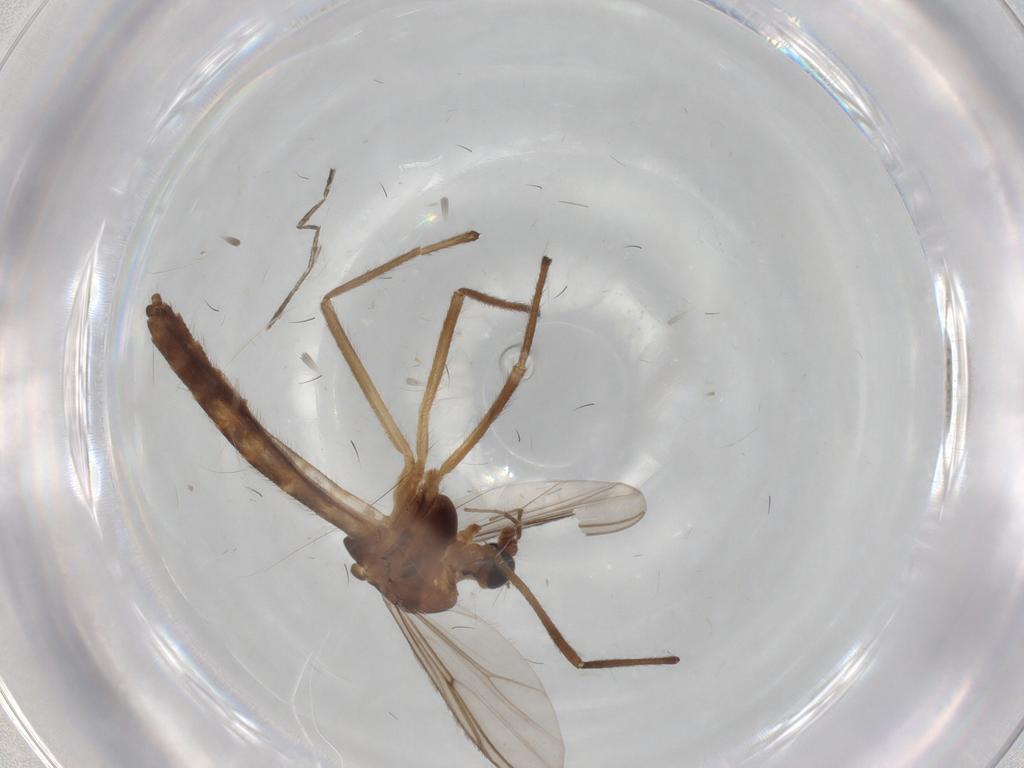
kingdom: Animalia
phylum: Arthropoda
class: Insecta
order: Diptera
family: Chironomidae
